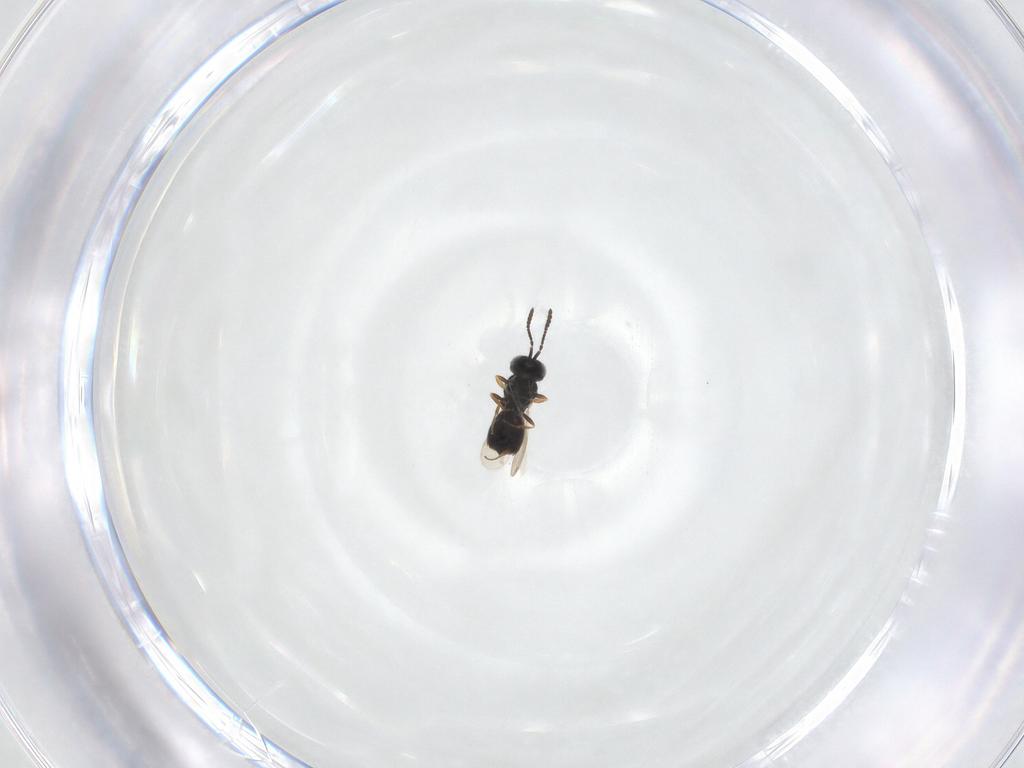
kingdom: Animalia
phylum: Arthropoda
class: Insecta
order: Hymenoptera
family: Scelionidae
